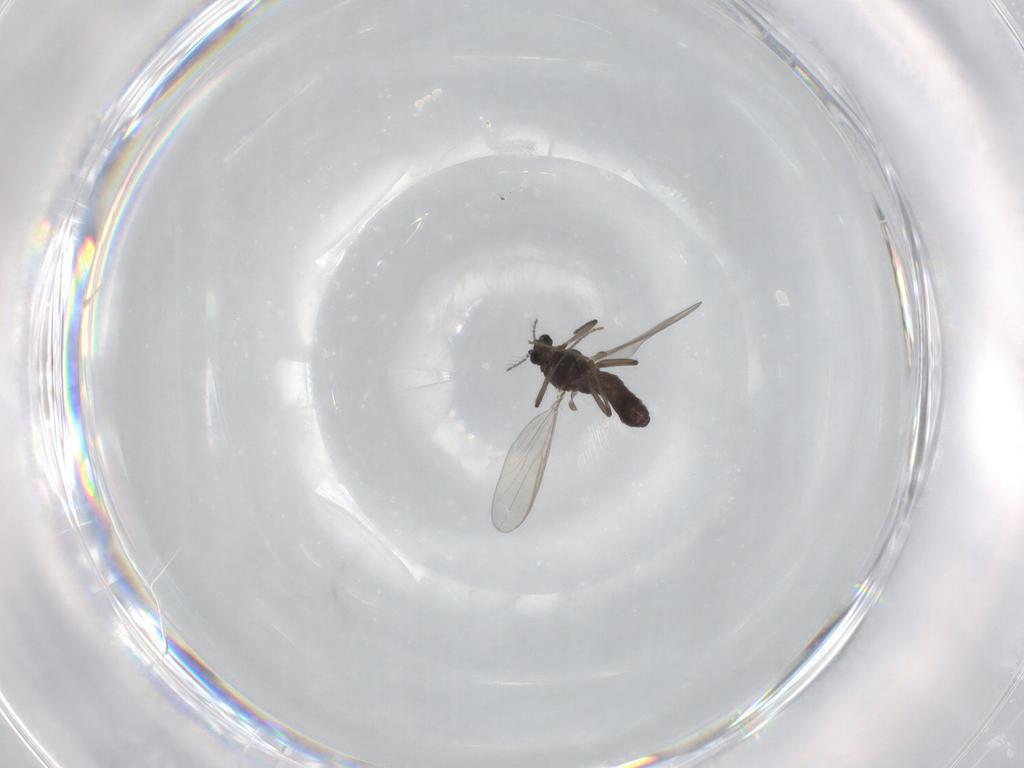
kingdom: Animalia
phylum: Arthropoda
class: Insecta
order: Diptera
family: Chironomidae
